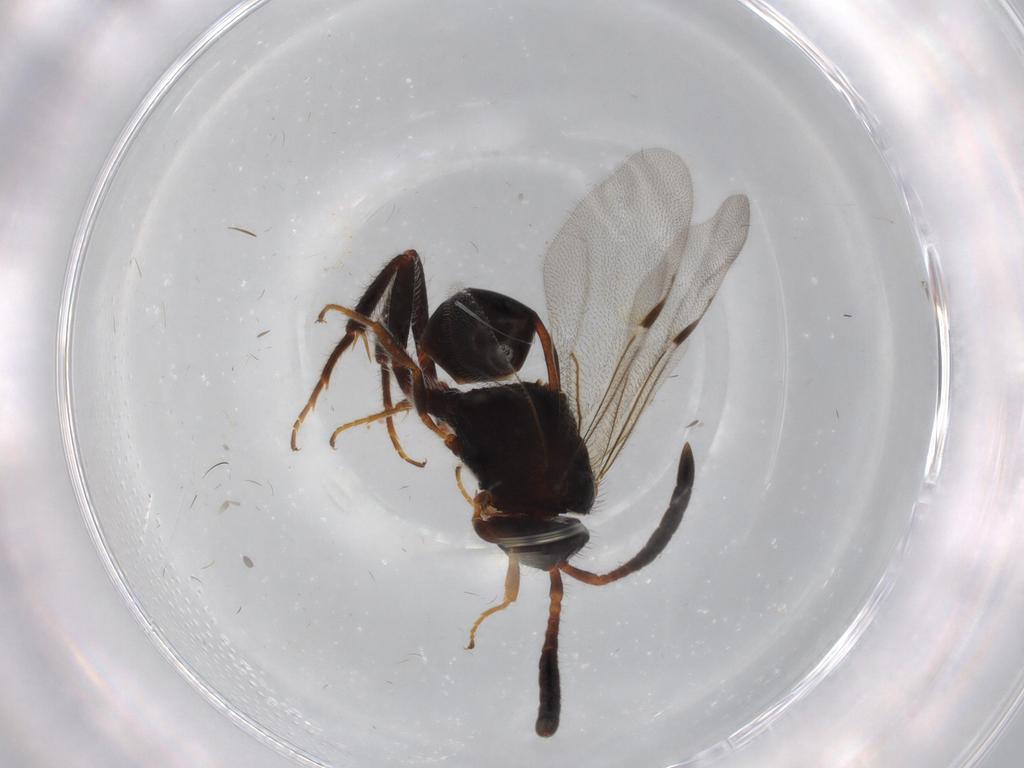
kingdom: Animalia
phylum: Arthropoda
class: Insecta
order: Hymenoptera
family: Evaniidae
